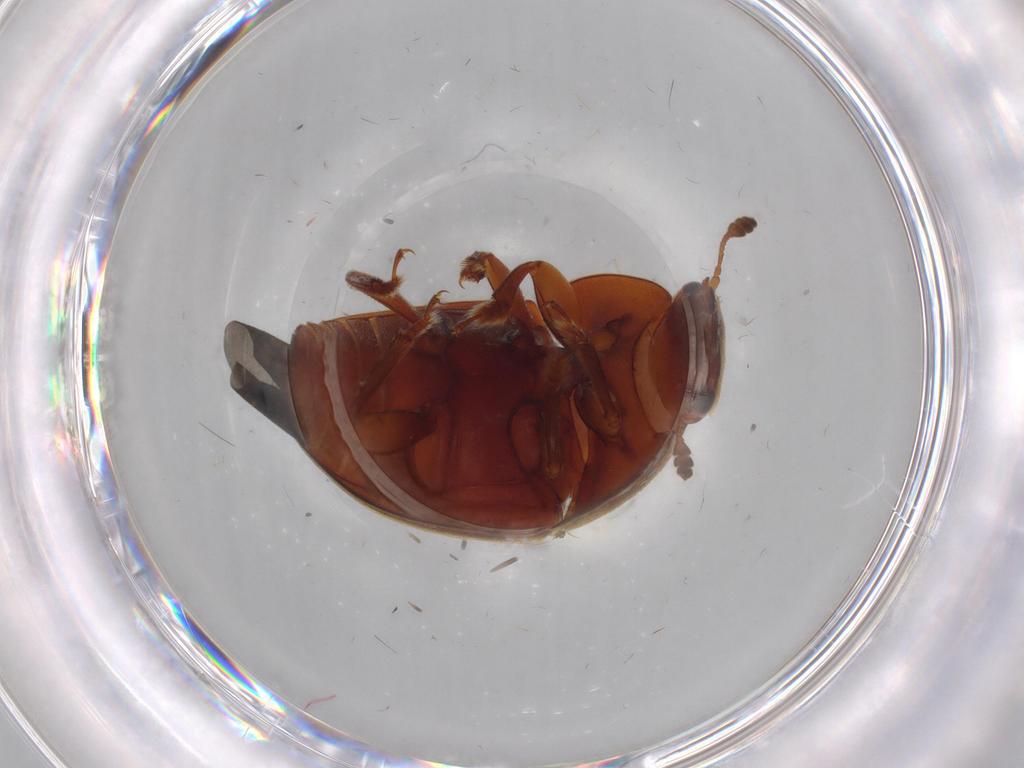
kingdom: Animalia
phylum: Arthropoda
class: Insecta
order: Coleoptera
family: Nitidulidae
